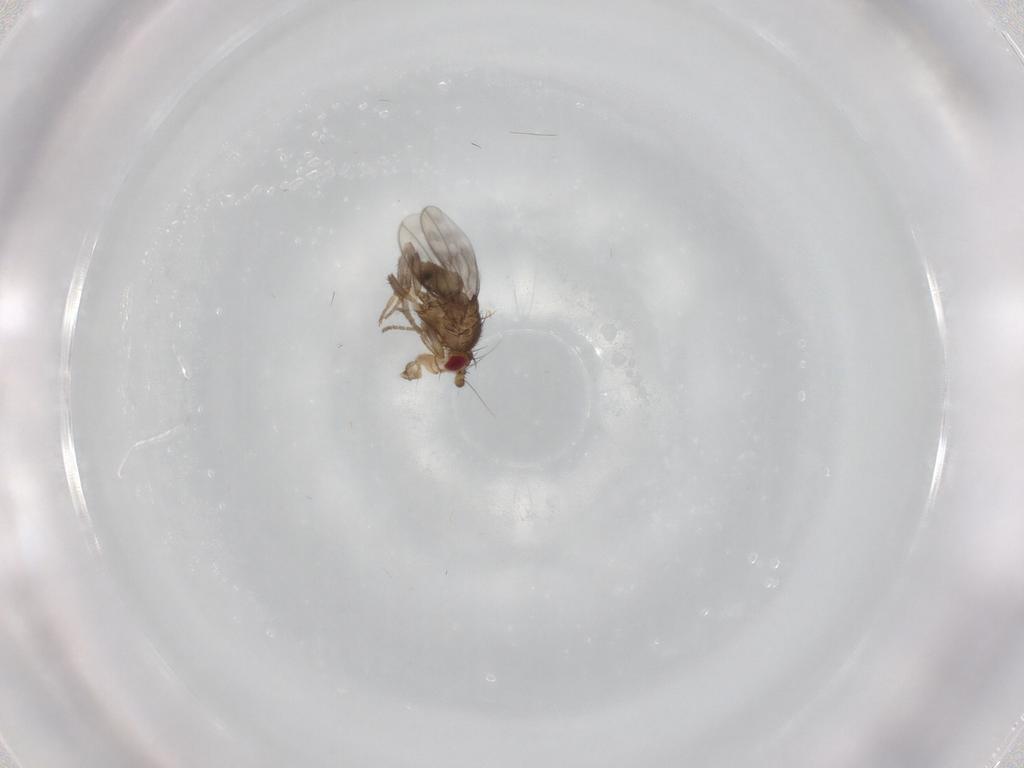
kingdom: Animalia
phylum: Arthropoda
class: Insecta
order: Diptera
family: Sphaeroceridae
